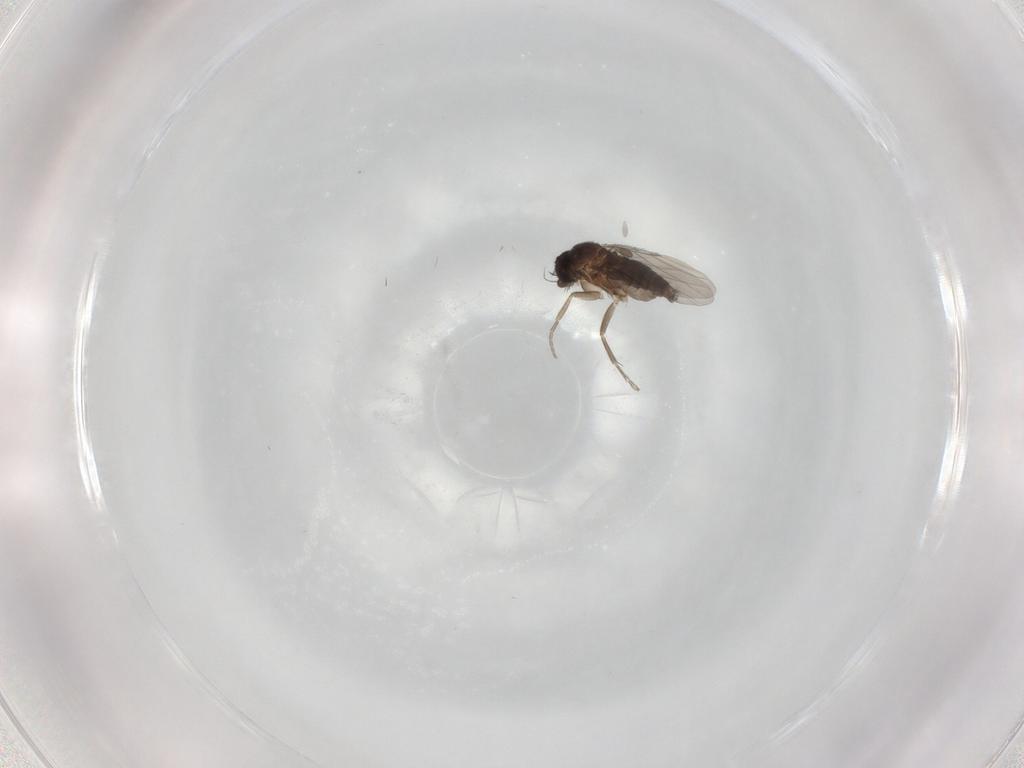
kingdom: Animalia
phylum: Arthropoda
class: Insecta
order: Diptera
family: Phoridae
